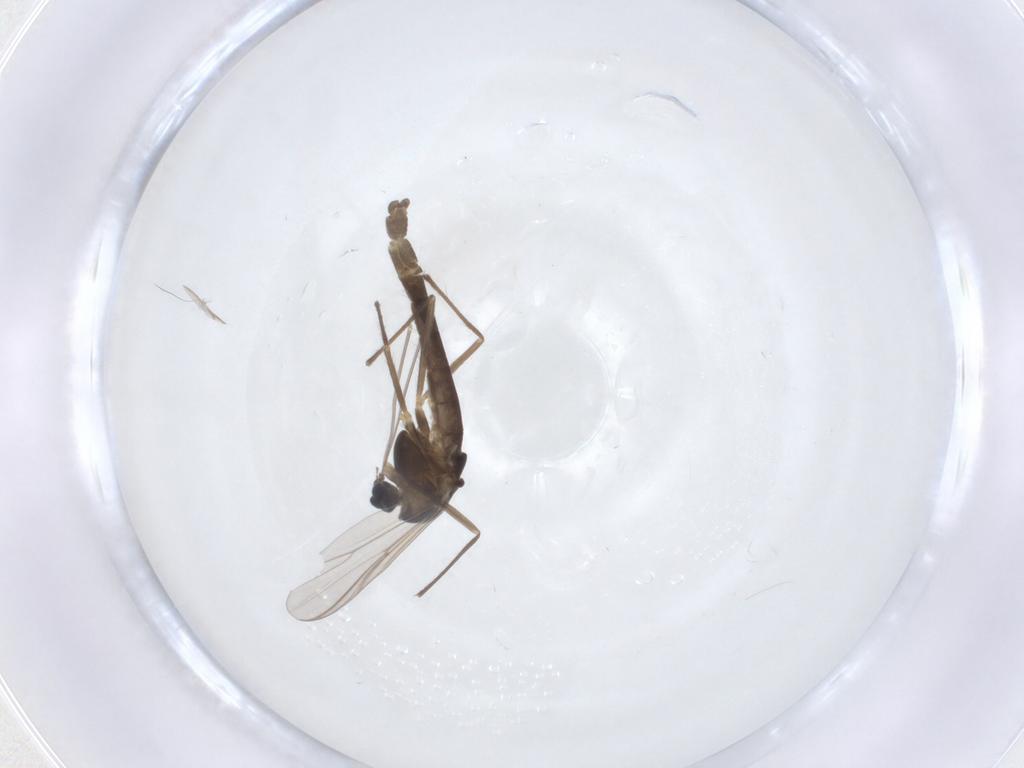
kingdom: Animalia
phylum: Arthropoda
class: Insecta
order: Diptera
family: Chironomidae
